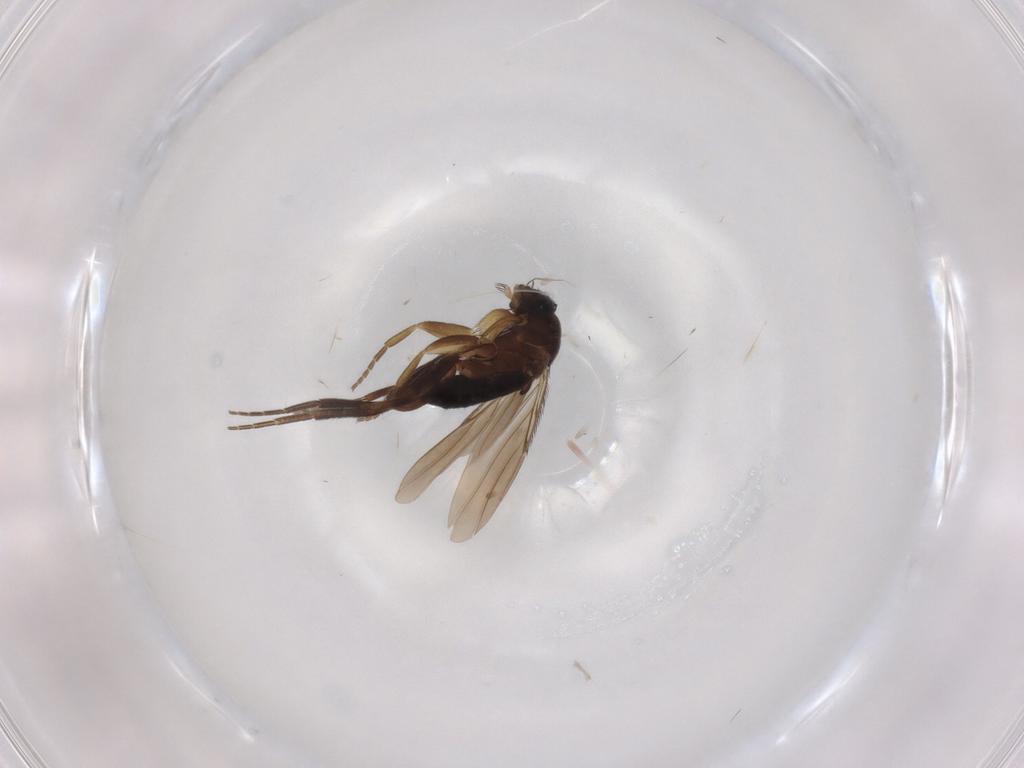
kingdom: Animalia
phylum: Arthropoda
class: Insecta
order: Diptera
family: Phoridae
